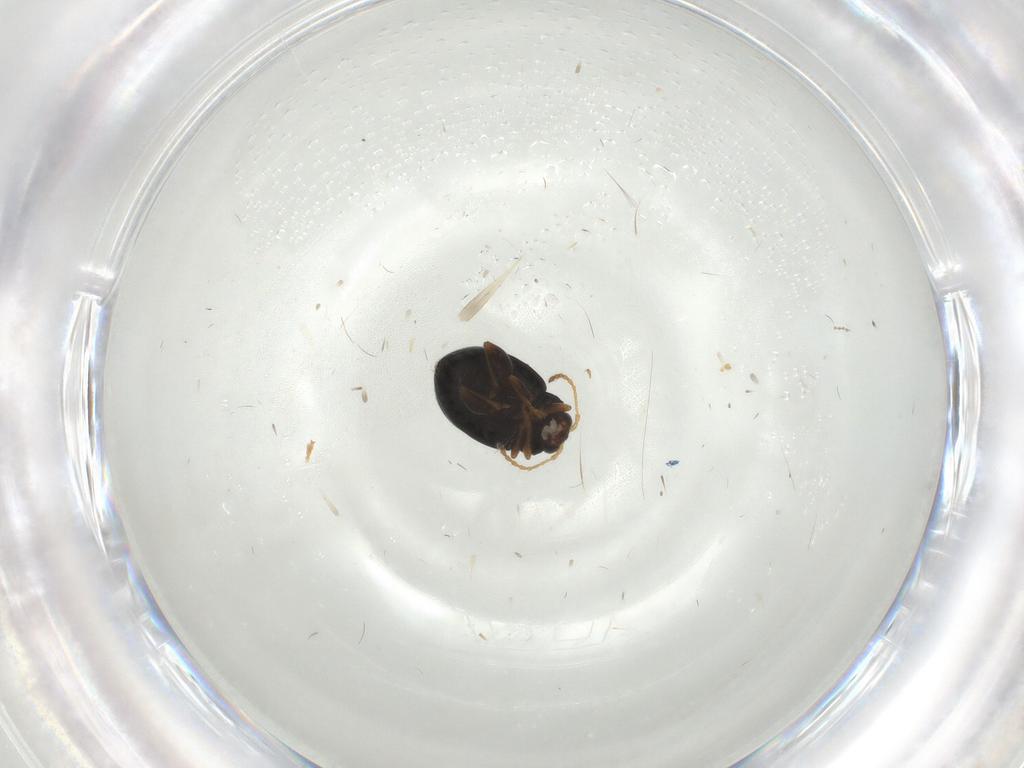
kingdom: Animalia
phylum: Arthropoda
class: Insecta
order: Coleoptera
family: Chrysomelidae
